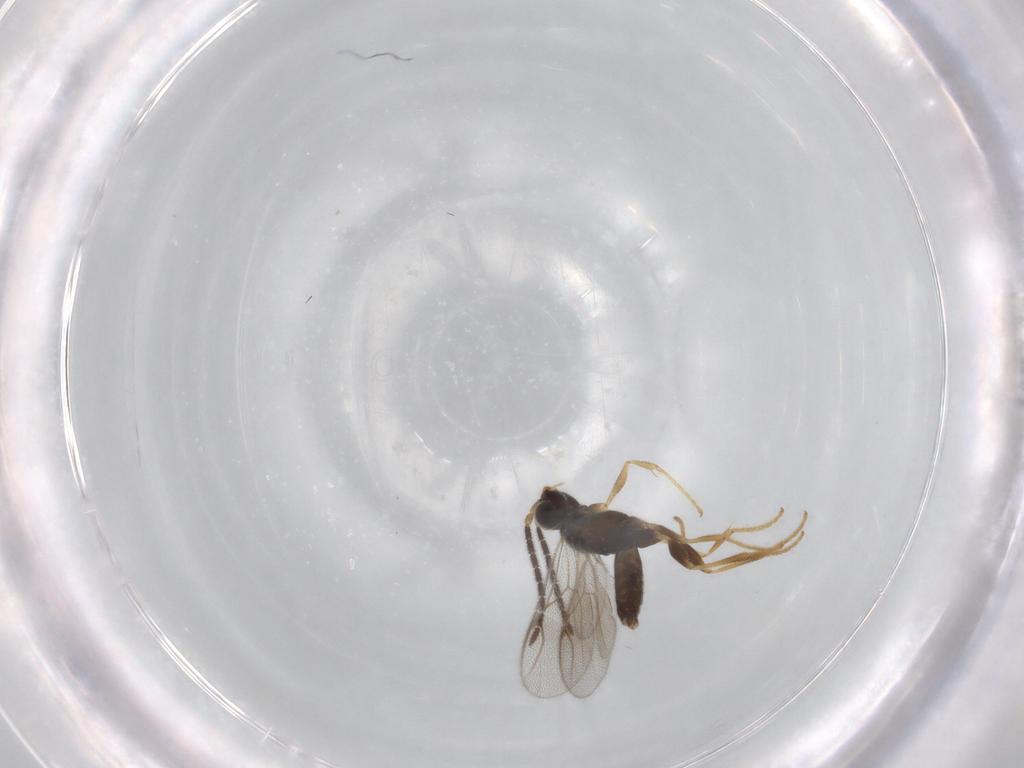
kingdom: Animalia
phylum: Arthropoda
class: Insecta
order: Hymenoptera
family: Dryinidae
